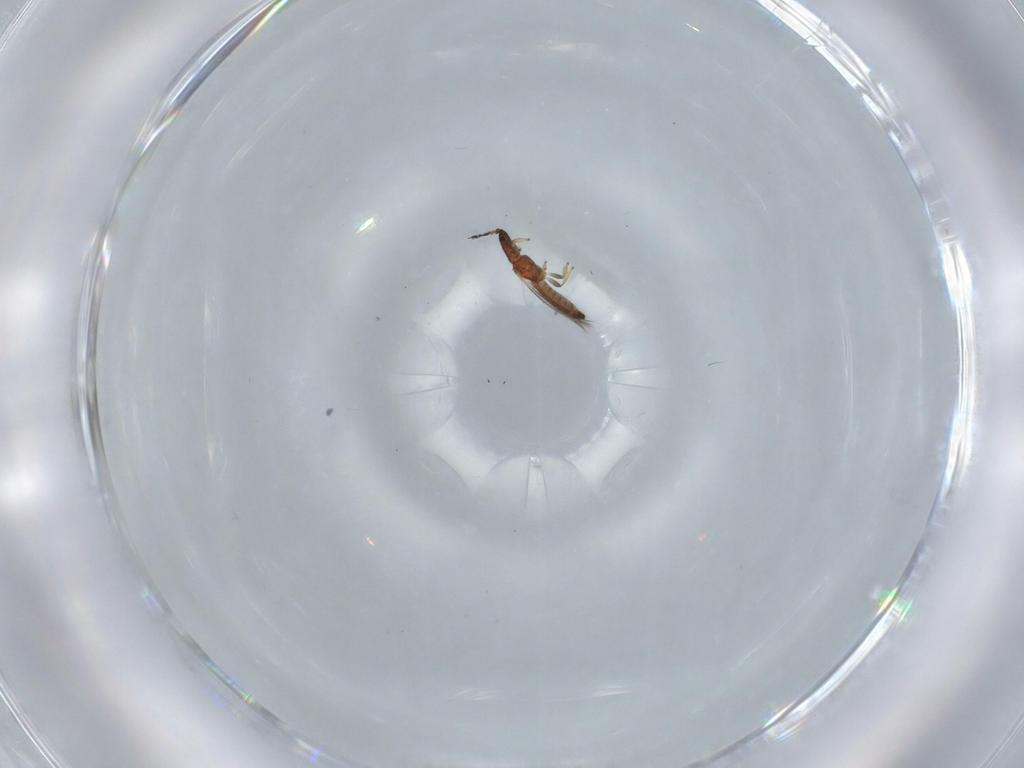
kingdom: Animalia
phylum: Arthropoda
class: Insecta
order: Thysanoptera
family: Thripidae
